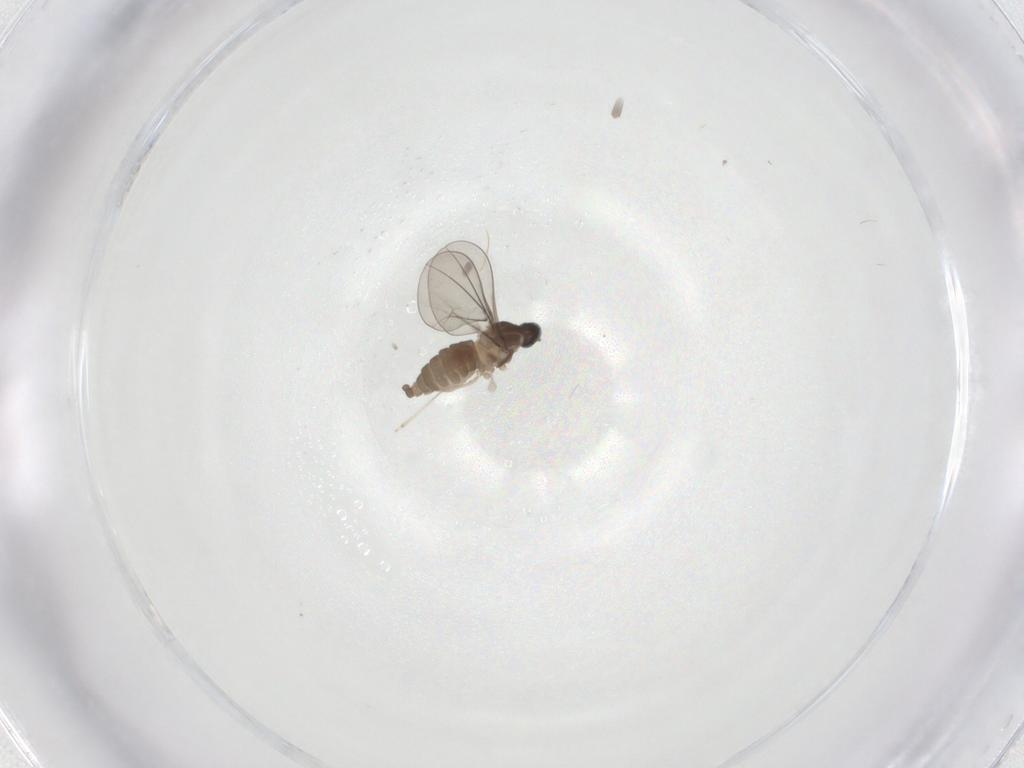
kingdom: Animalia
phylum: Arthropoda
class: Insecta
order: Diptera
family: Cecidomyiidae
